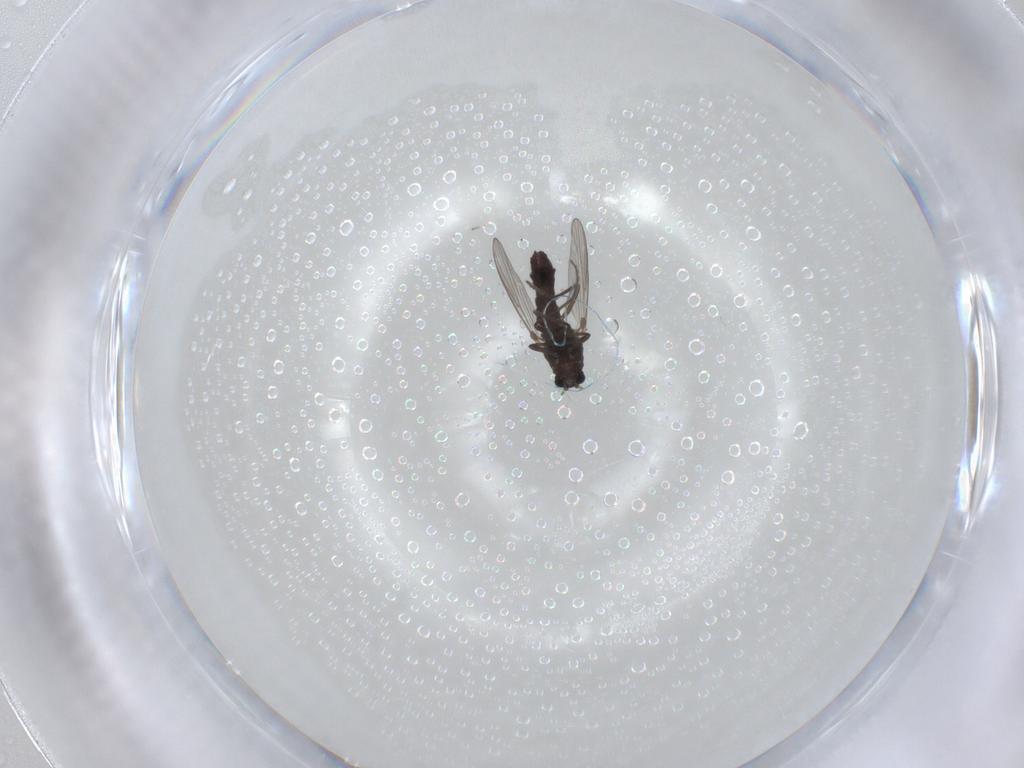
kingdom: Animalia
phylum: Arthropoda
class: Insecta
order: Diptera
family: Chironomidae
